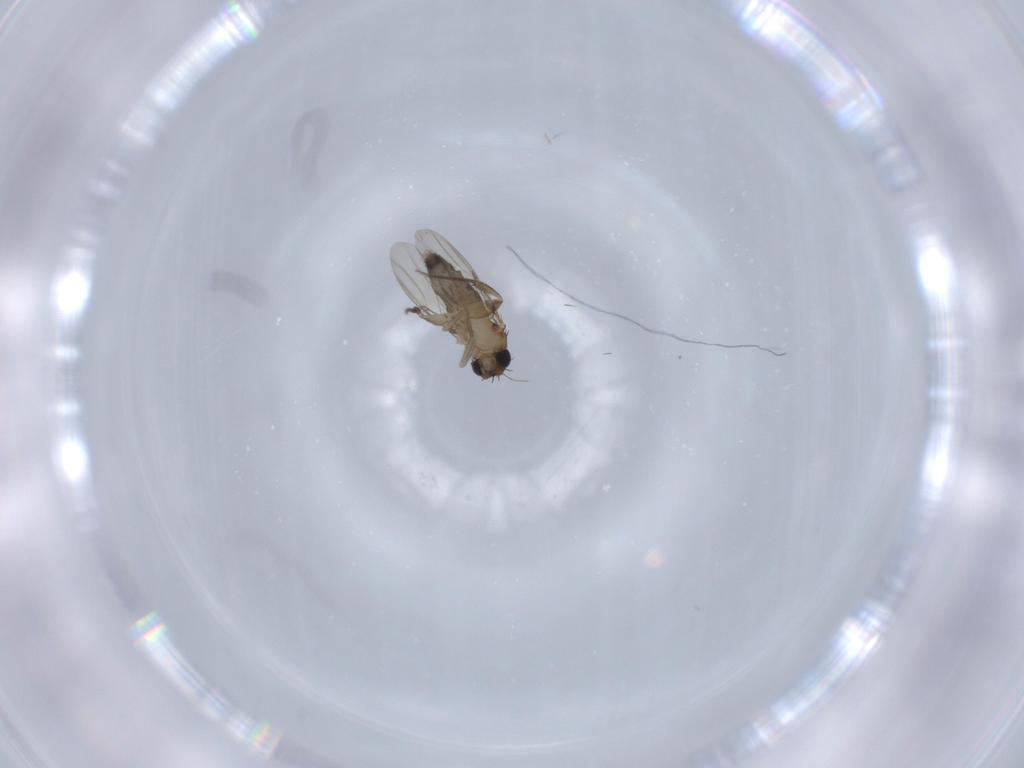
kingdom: Animalia
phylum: Arthropoda
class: Insecta
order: Diptera
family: Phoridae
